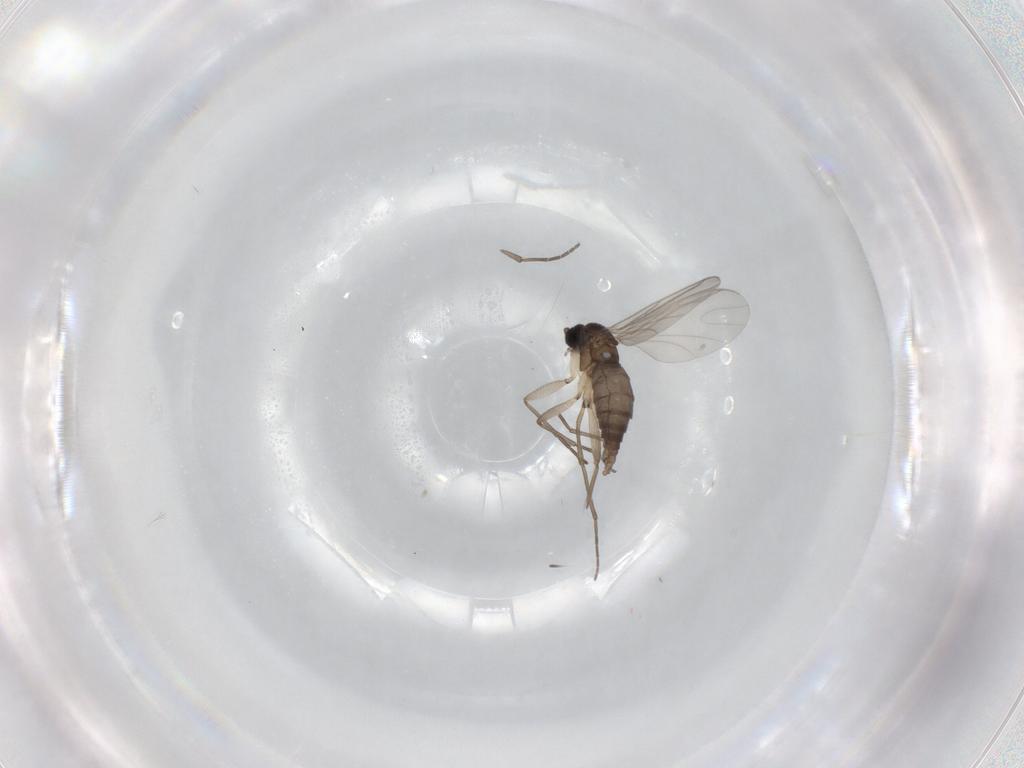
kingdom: Animalia
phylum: Arthropoda
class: Insecta
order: Diptera
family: Sciaridae
